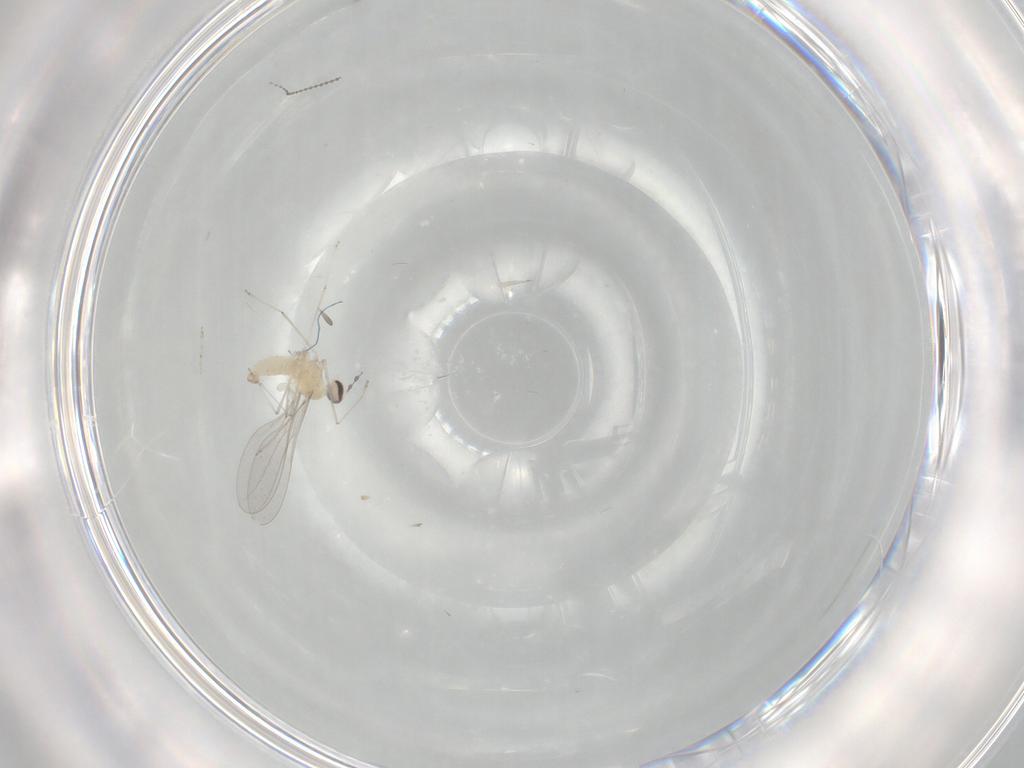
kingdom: Animalia
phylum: Arthropoda
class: Insecta
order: Diptera
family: Cecidomyiidae
